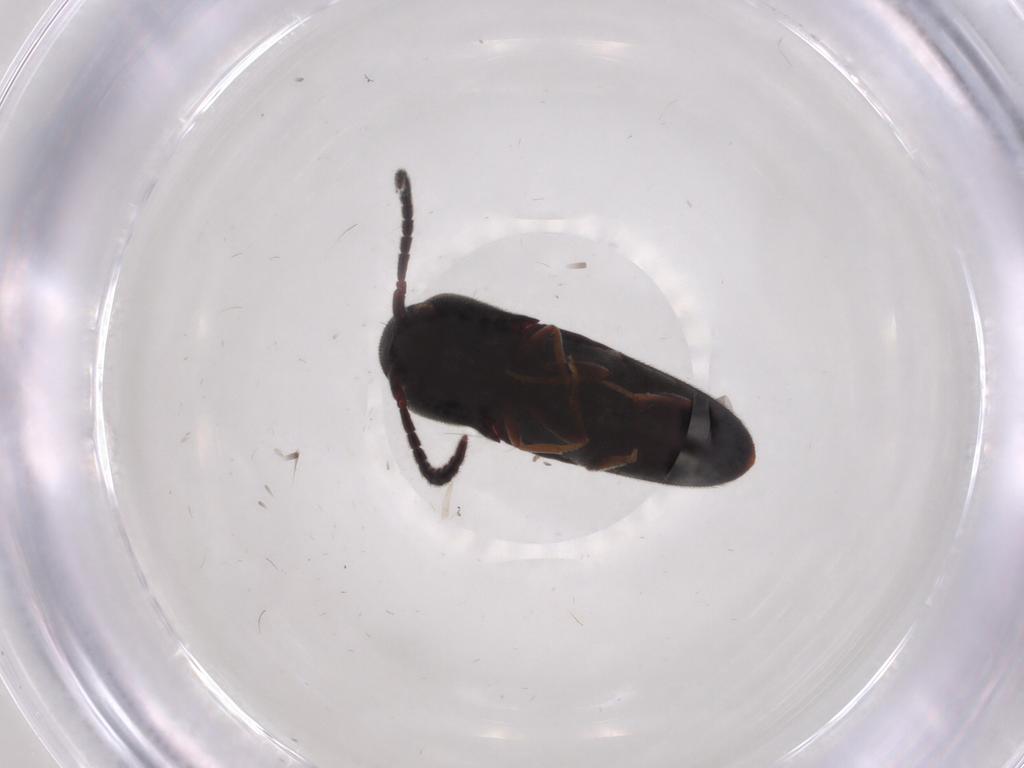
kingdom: Animalia
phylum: Arthropoda
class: Insecta
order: Coleoptera
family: Eucnemidae
